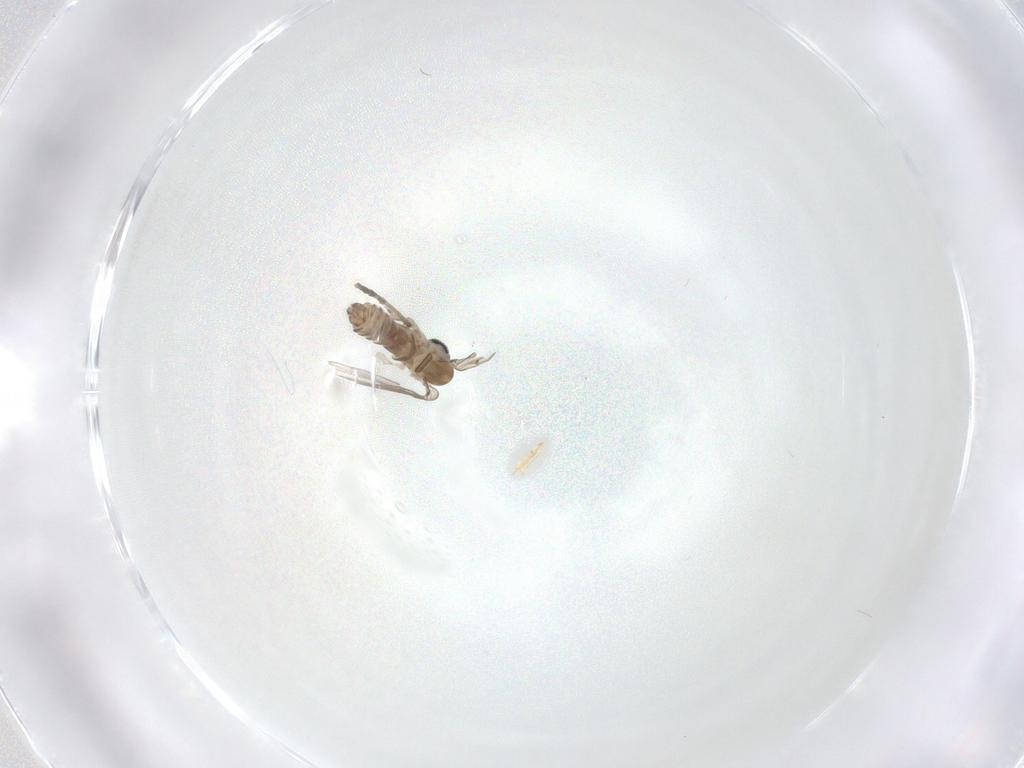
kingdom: Animalia
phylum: Arthropoda
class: Insecta
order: Diptera
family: Psychodidae
